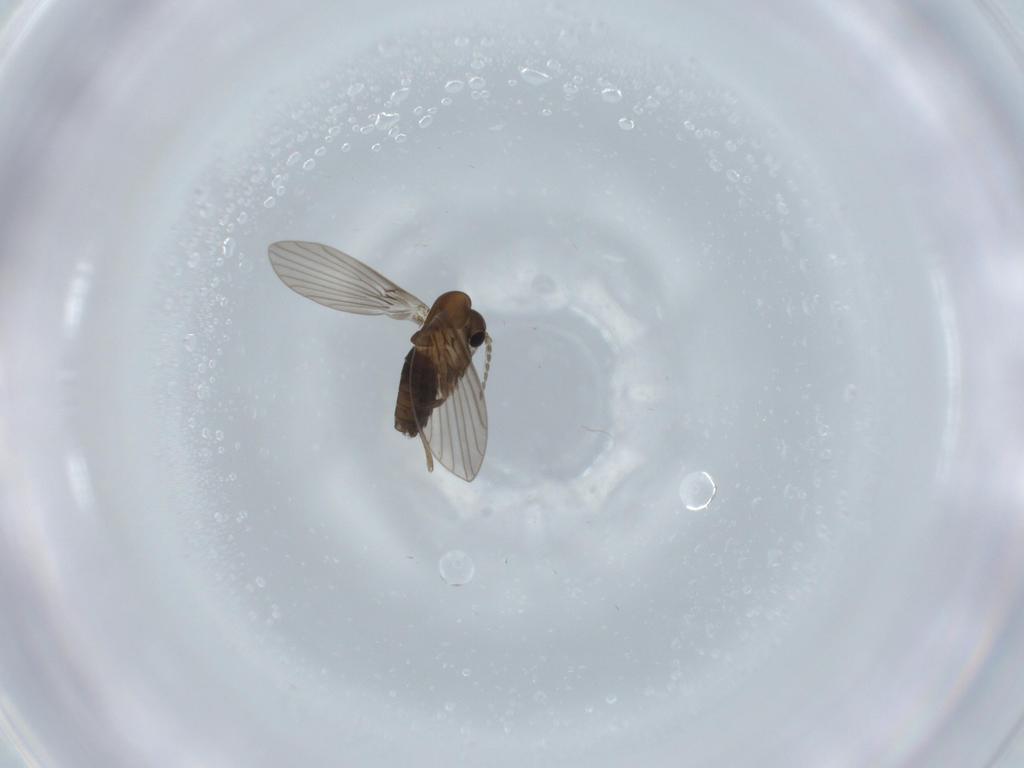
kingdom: Animalia
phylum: Arthropoda
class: Insecta
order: Diptera
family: Psychodidae
